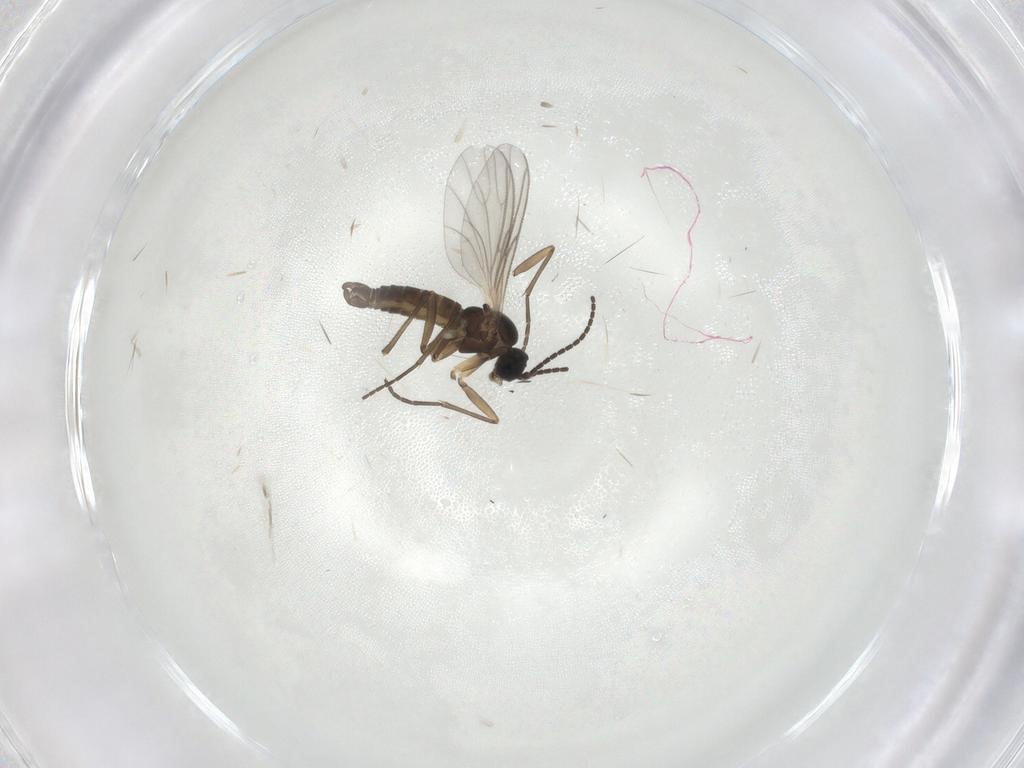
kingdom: Animalia
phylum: Arthropoda
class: Insecta
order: Diptera
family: Sciaridae
